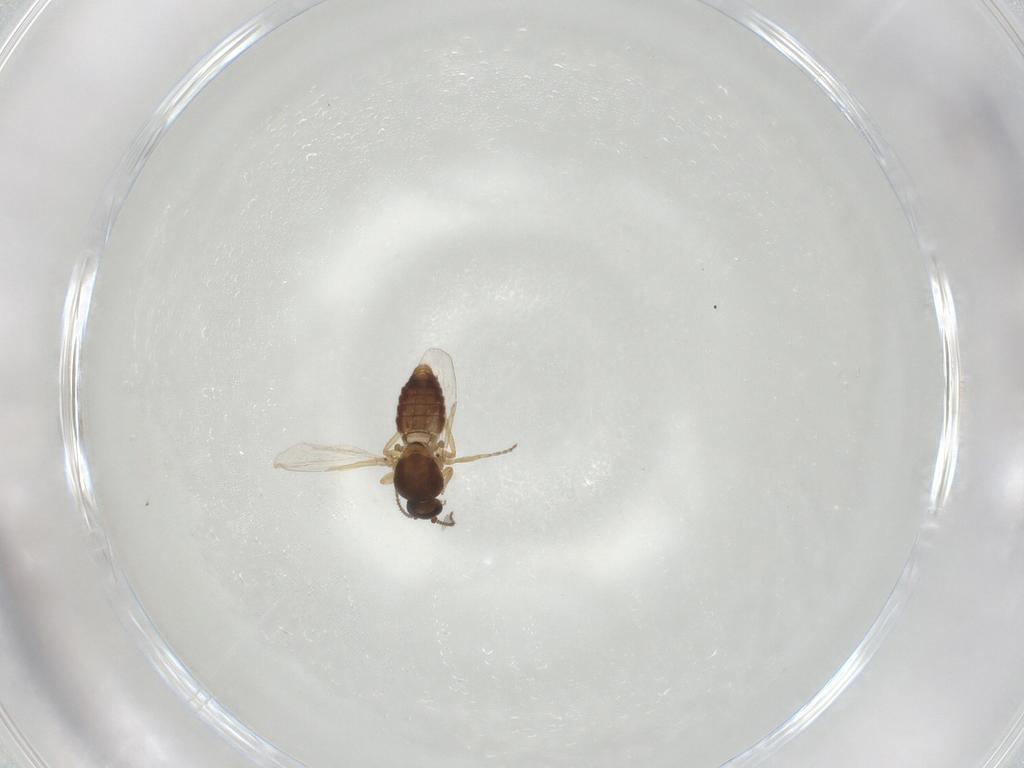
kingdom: Animalia
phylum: Arthropoda
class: Insecta
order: Diptera
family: Ceratopogonidae
